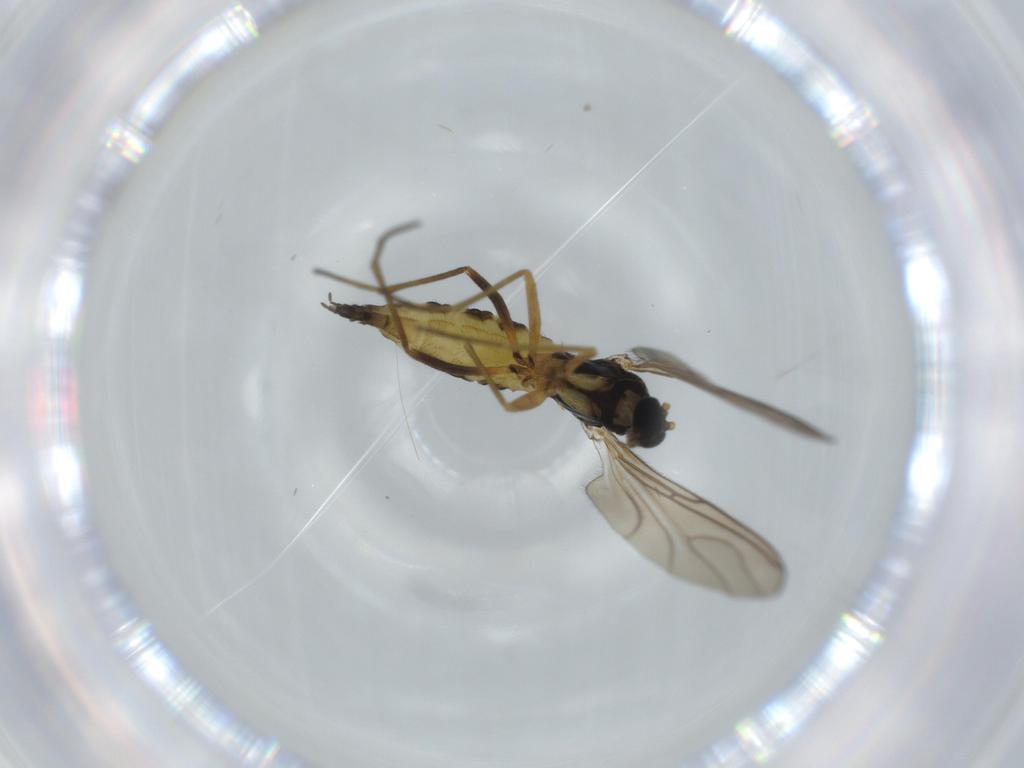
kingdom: Animalia
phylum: Arthropoda
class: Insecta
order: Diptera
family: Sciaridae
